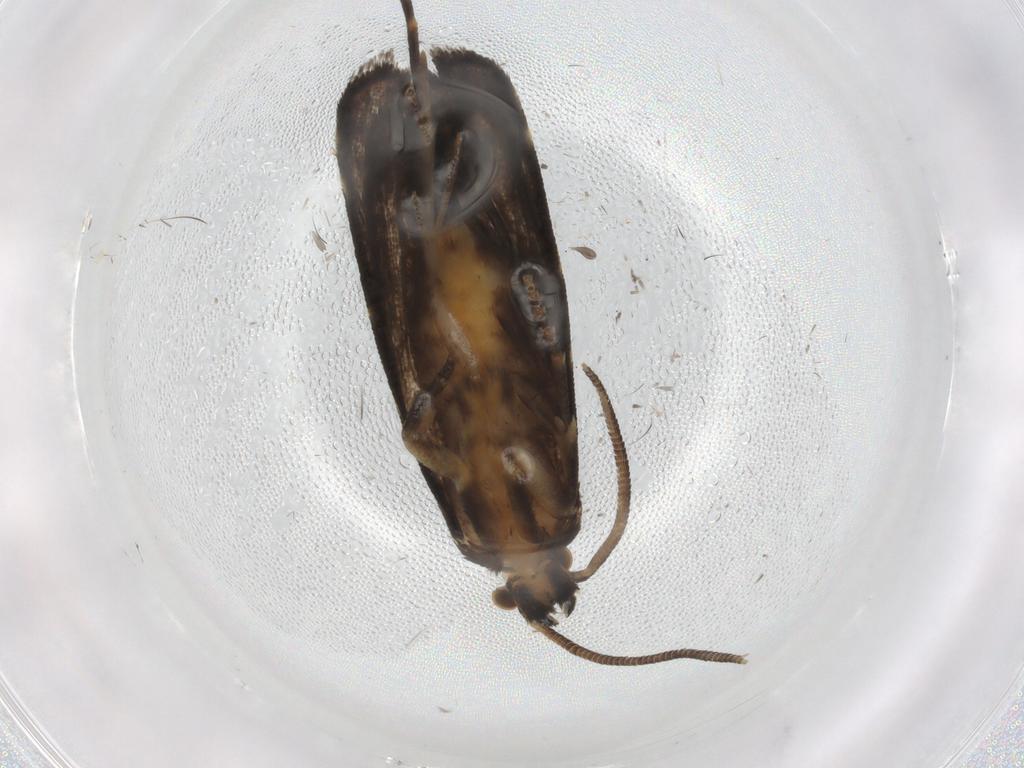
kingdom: Animalia
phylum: Arthropoda
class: Insecta
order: Lepidoptera
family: Dryadaulidae
